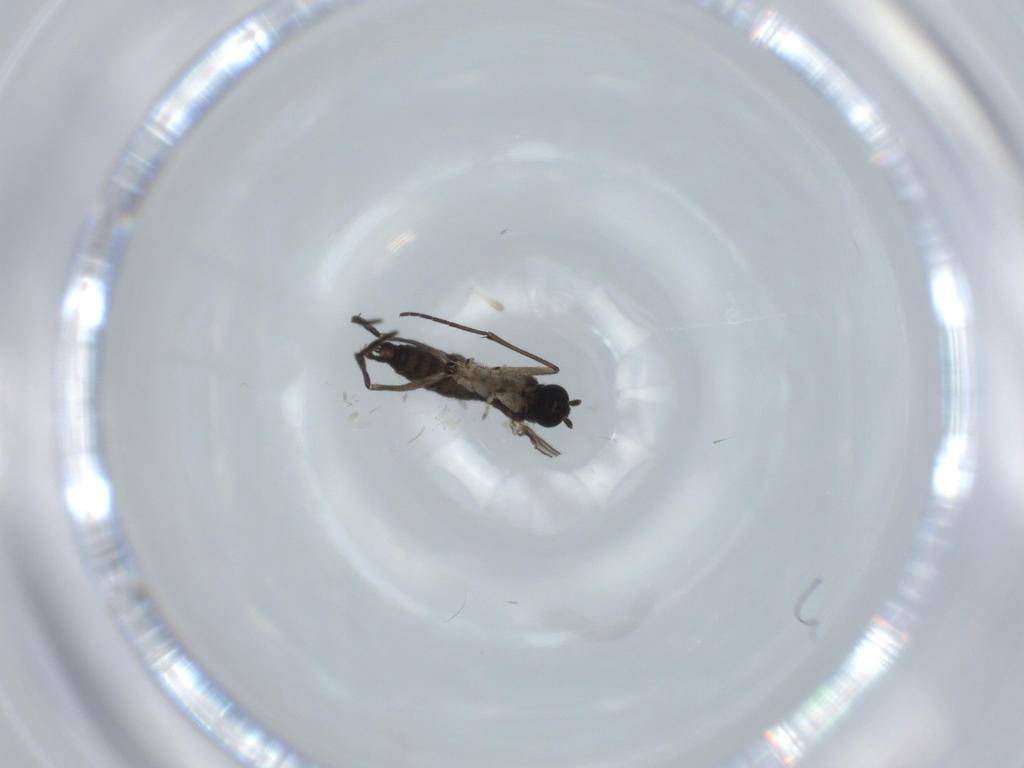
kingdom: Animalia
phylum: Arthropoda
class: Insecta
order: Diptera
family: Sciaridae
